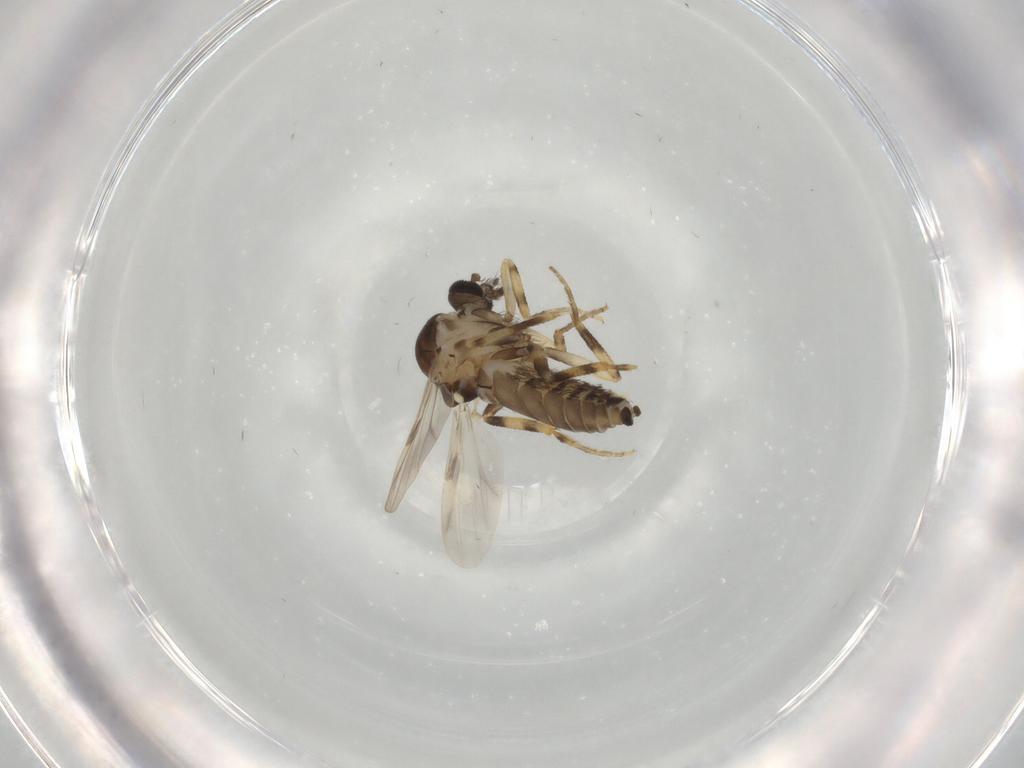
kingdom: Animalia
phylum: Arthropoda
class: Insecta
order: Diptera
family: Ceratopogonidae
